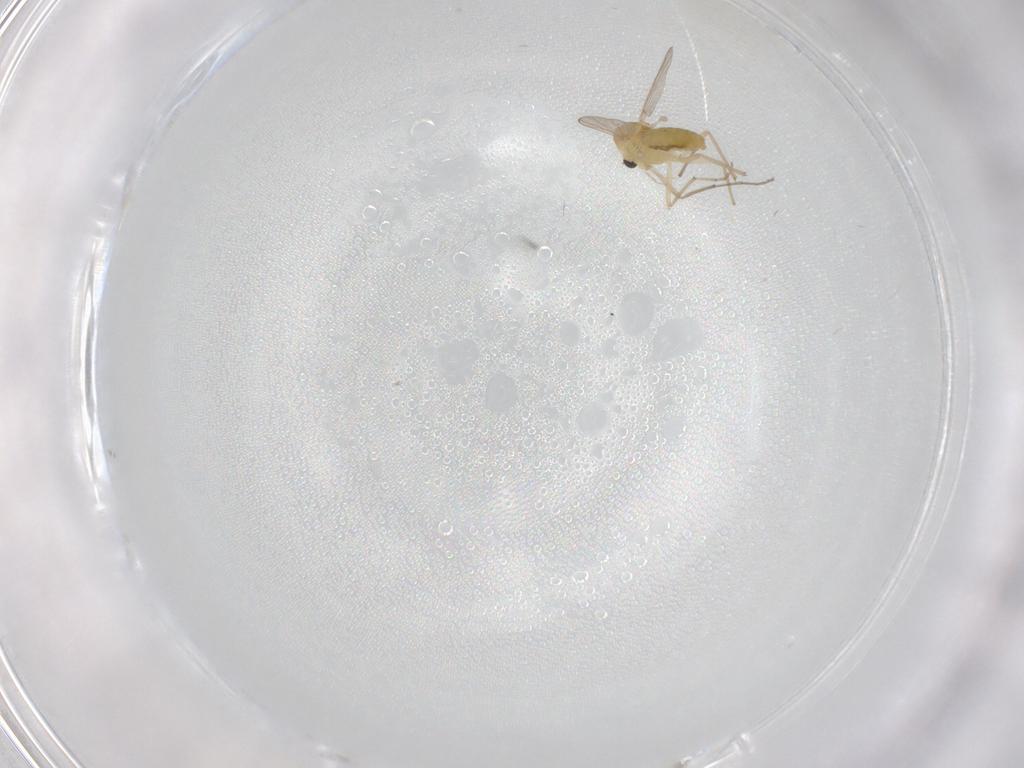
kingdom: Animalia
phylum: Arthropoda
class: Insecta
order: Diptera
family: Chironomidae
